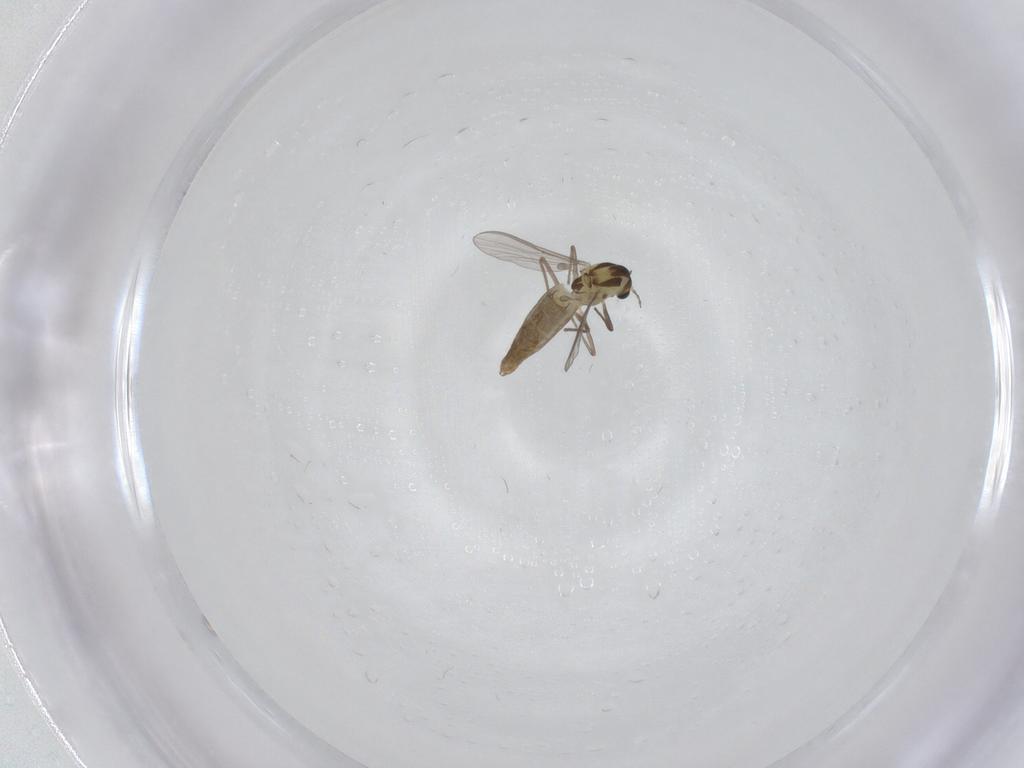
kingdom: Animalia
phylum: Arthropoda
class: Insecta
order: Diptera
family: Chironomidae
